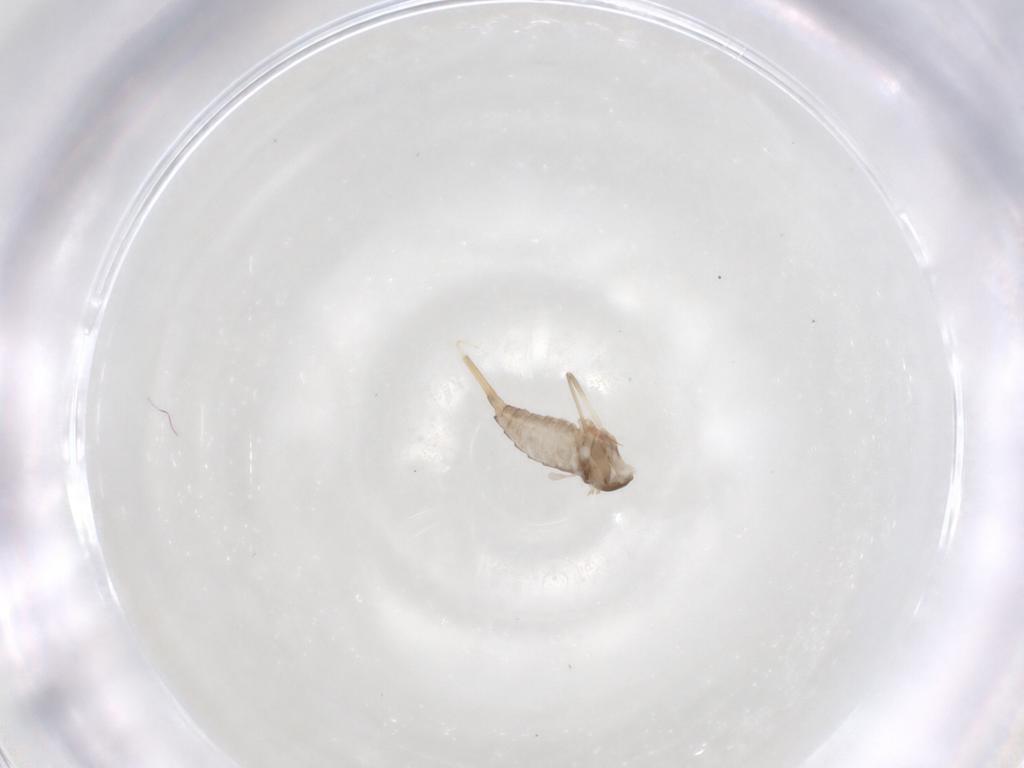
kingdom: Animalia
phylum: Arthropoda
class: Insecta
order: Diptera
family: Cecidomyiidae
